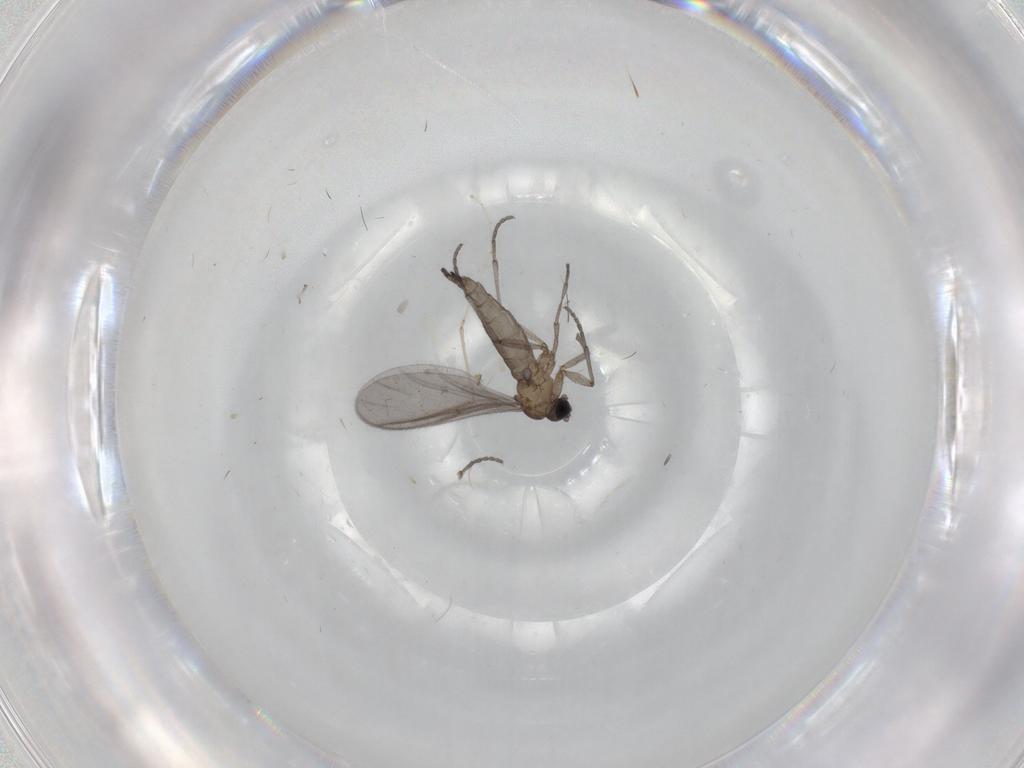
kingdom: Animalia
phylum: Arthropoda
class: Insecta
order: Diptera
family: Psychodidae
